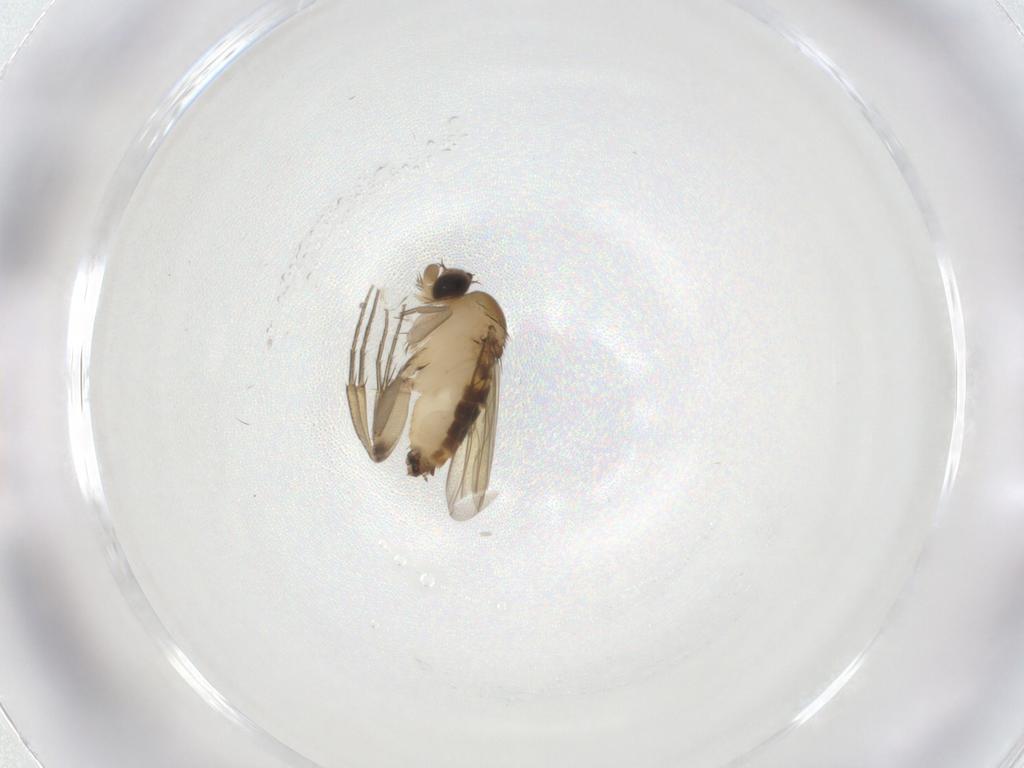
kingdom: Animalia
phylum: Arthropoda
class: Insecta
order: Diptera
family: Phoridae
